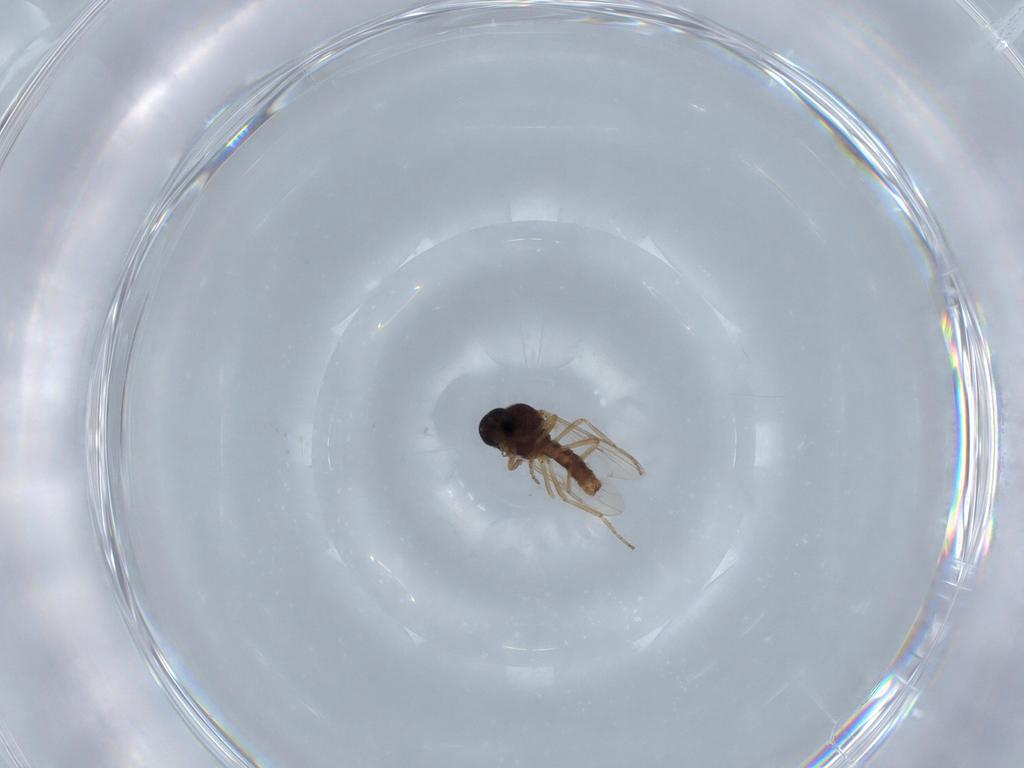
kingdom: Animalia
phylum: Arthropoda
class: Insecta
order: Diptera
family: Ceratopogonidae
